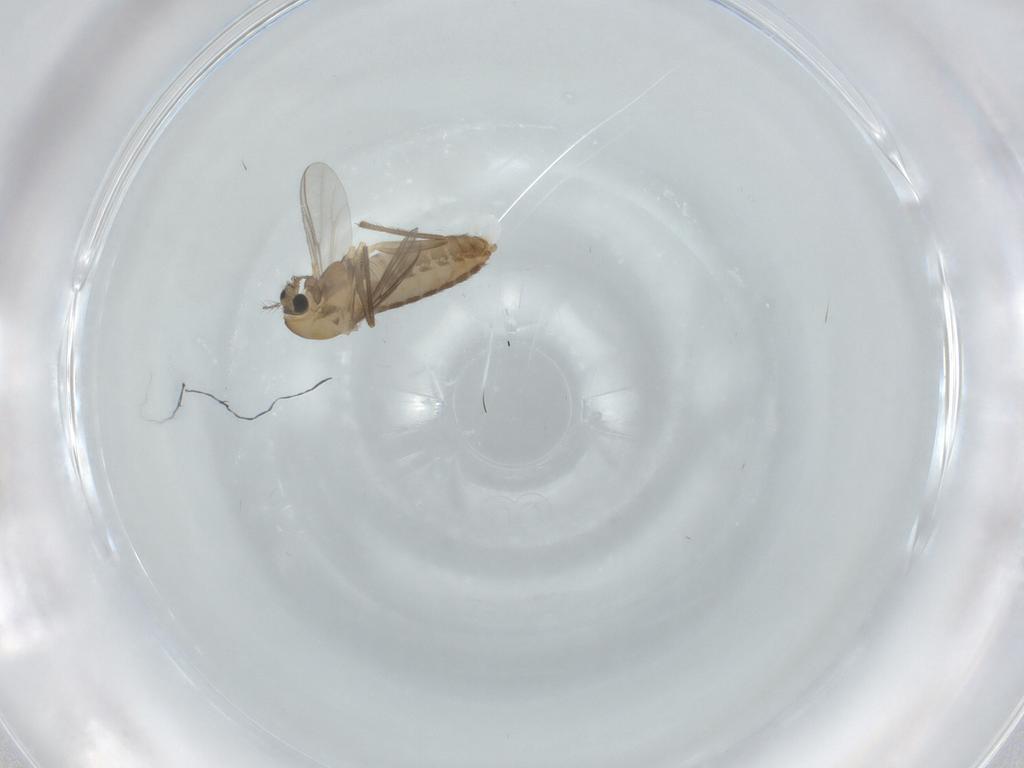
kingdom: Animalia
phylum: Arthropoda
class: Insecta
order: Diptera
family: Chironomidae
